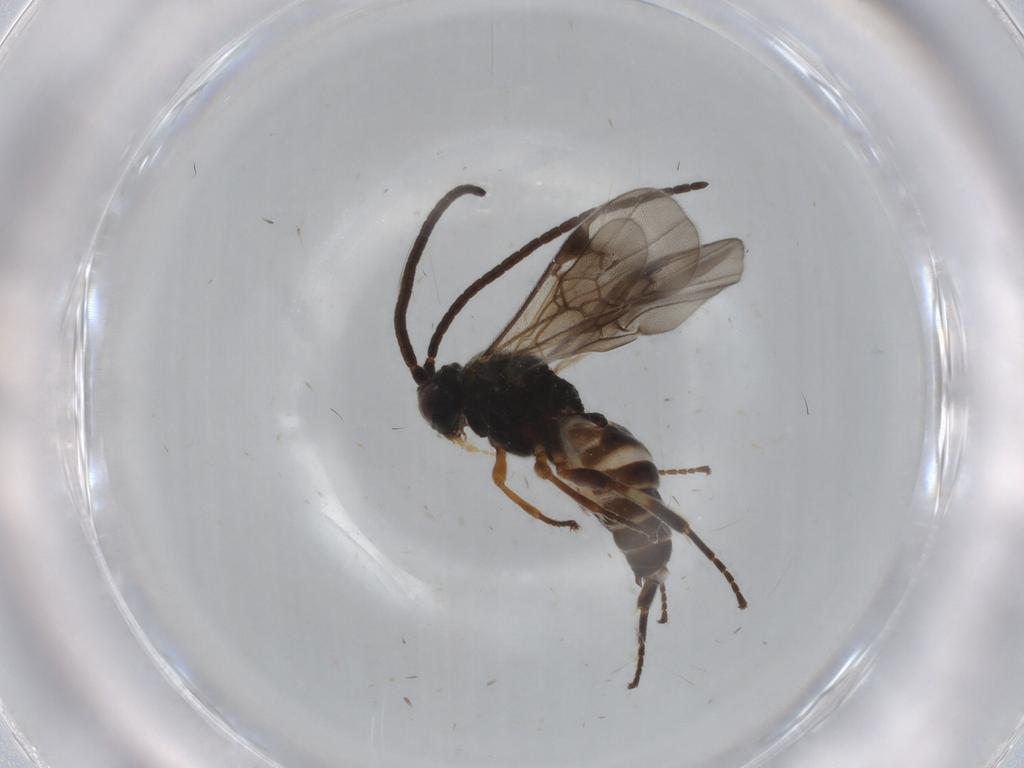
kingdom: Animalia
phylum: Arthropoda
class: Insecta
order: Hymenoptera
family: Braconidae
